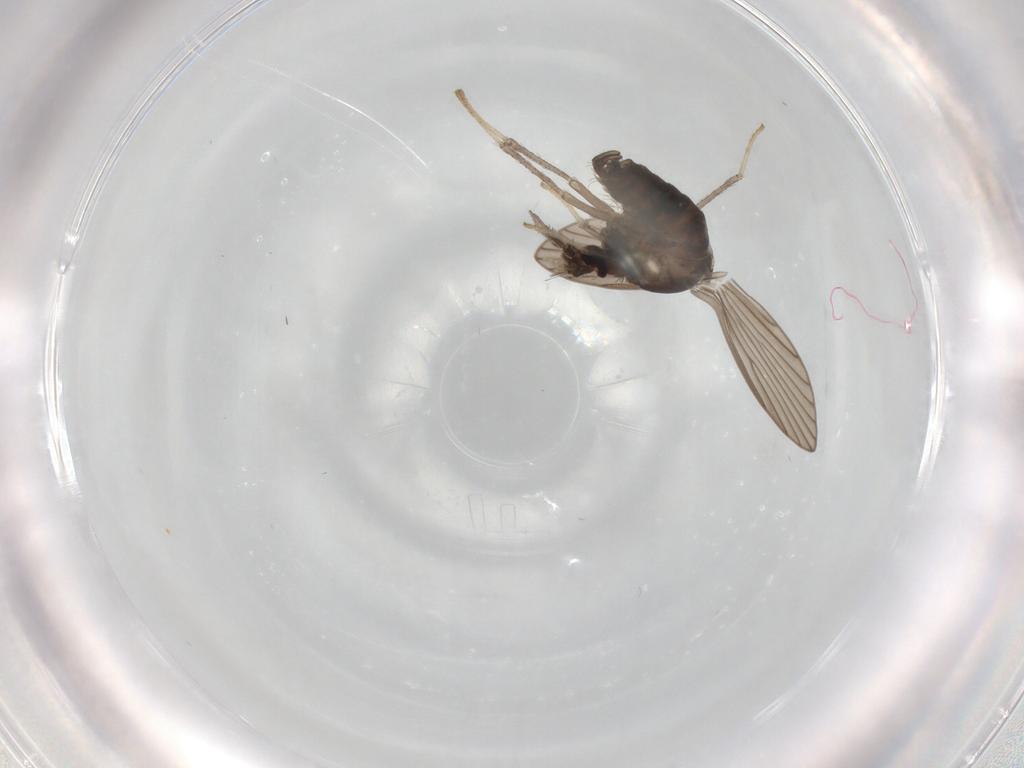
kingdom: Animalia
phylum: Arthropoda
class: Insecta
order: Diptera
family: Psychodidae
